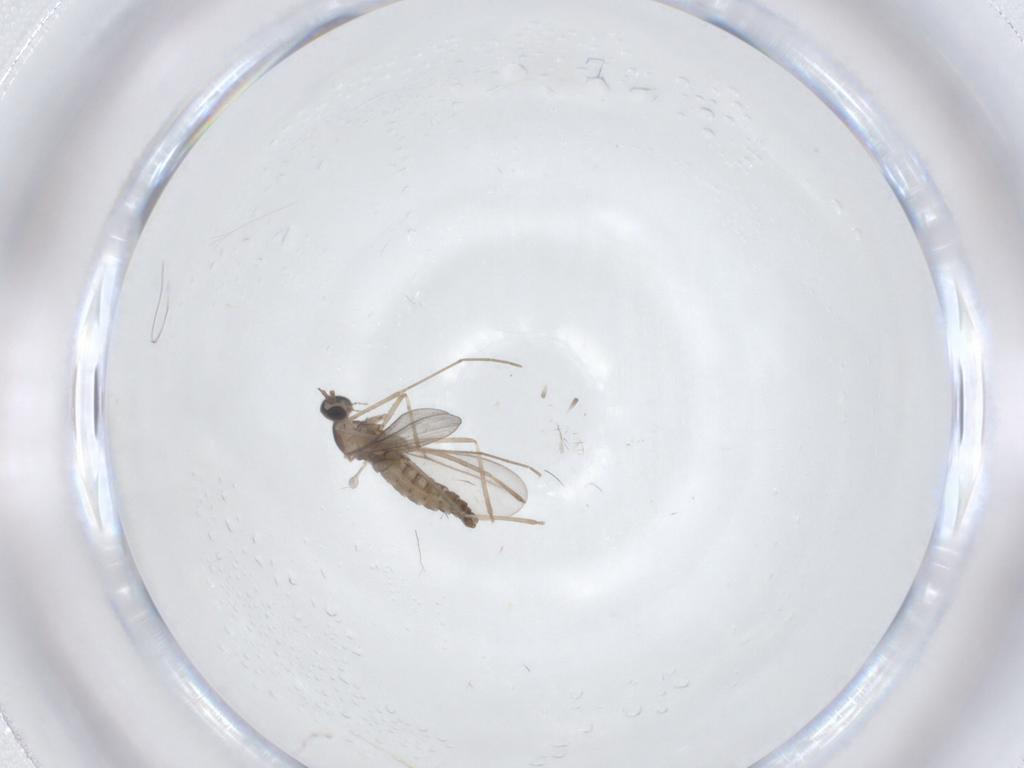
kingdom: Animalia
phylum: Arthropoda
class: Insecta
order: Diptera
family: Tabanidae
